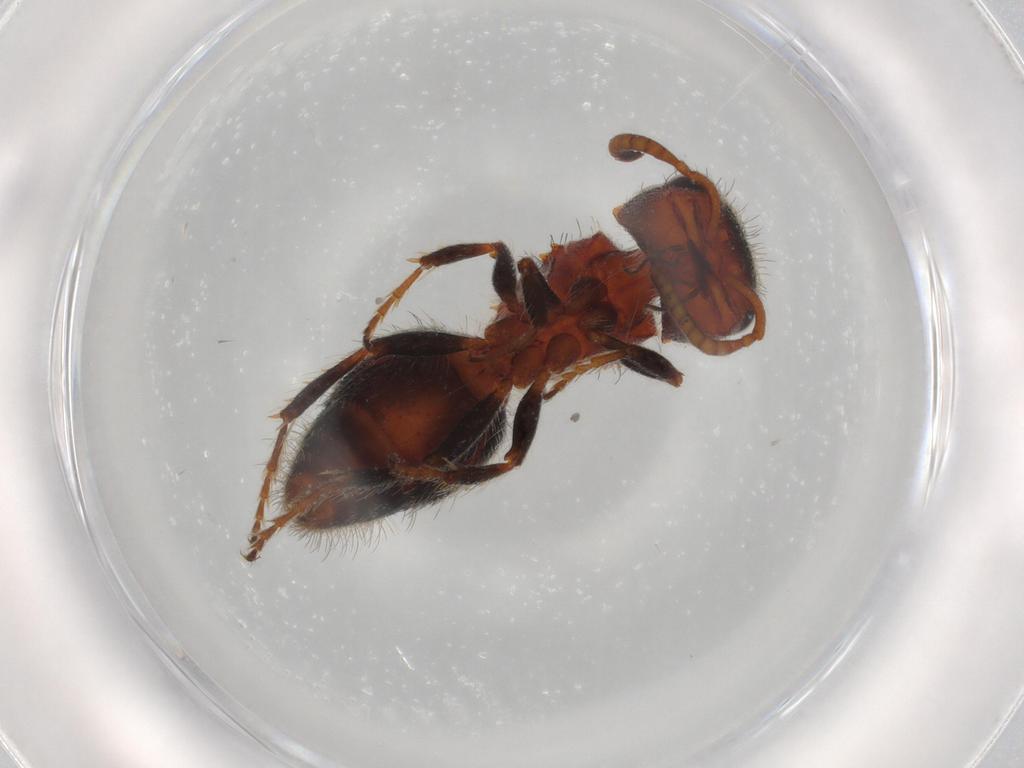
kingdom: Animalia
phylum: Arthropoda
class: Insecta
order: Hymenoptera
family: Mutillidae
